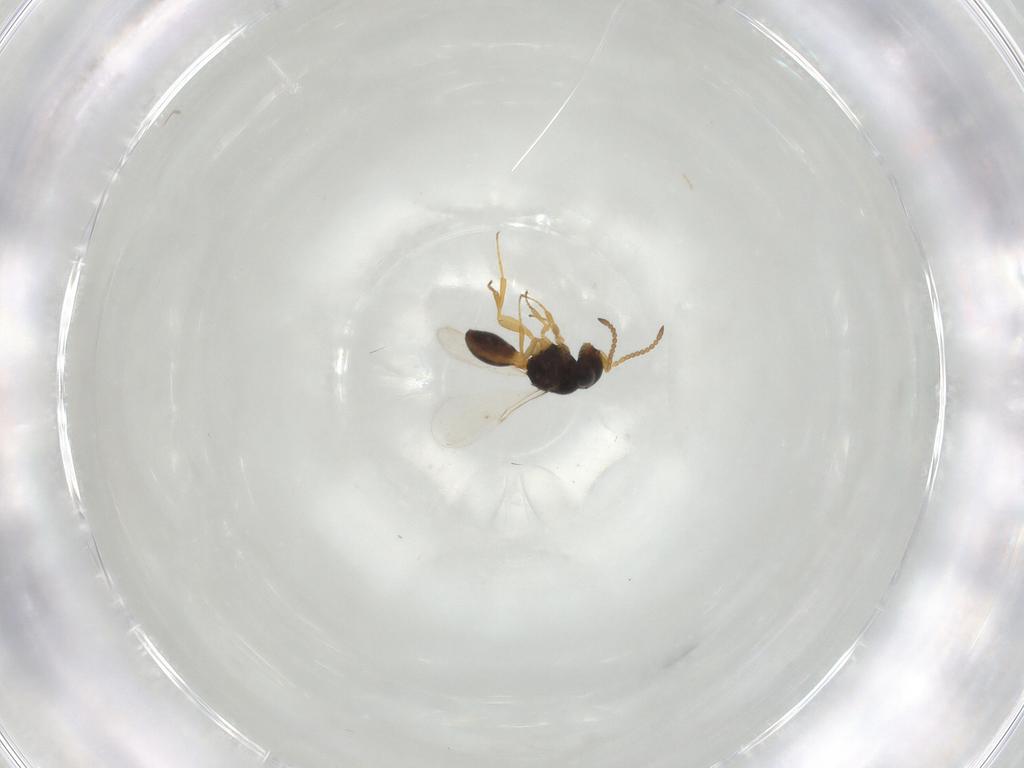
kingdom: Animalia
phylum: Arthropoda
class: Insecta
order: Hymenoptera
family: Scelionidae
